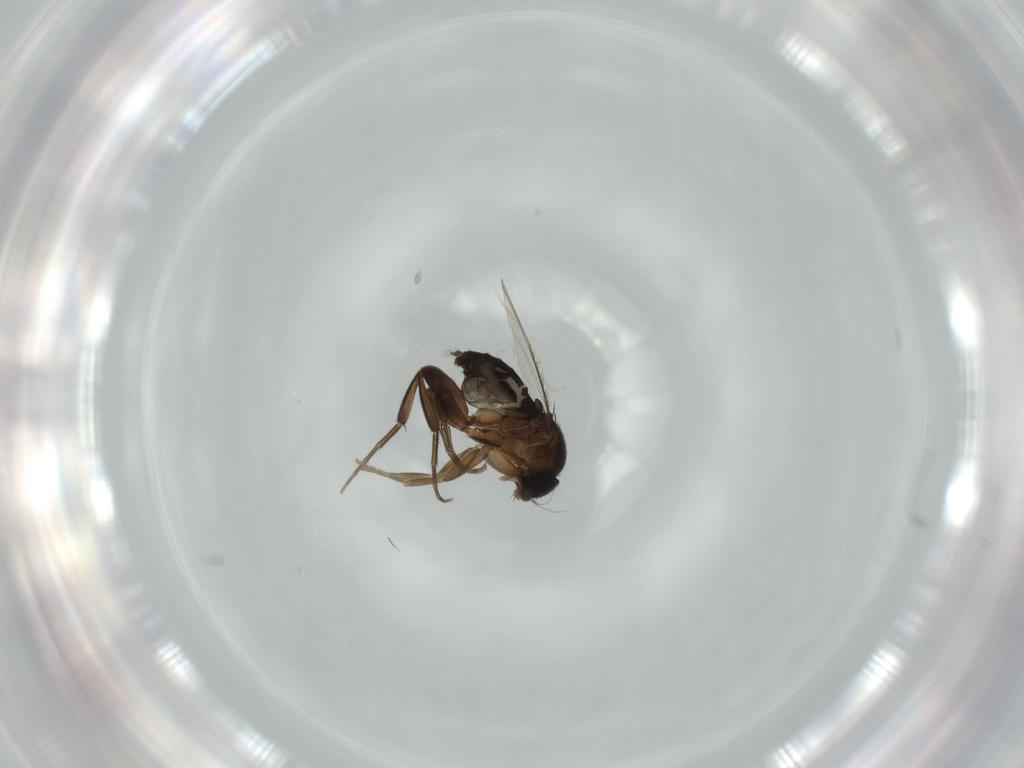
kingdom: Animalia
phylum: Arthropoda
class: Insecta
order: Diptera
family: Phoridae
